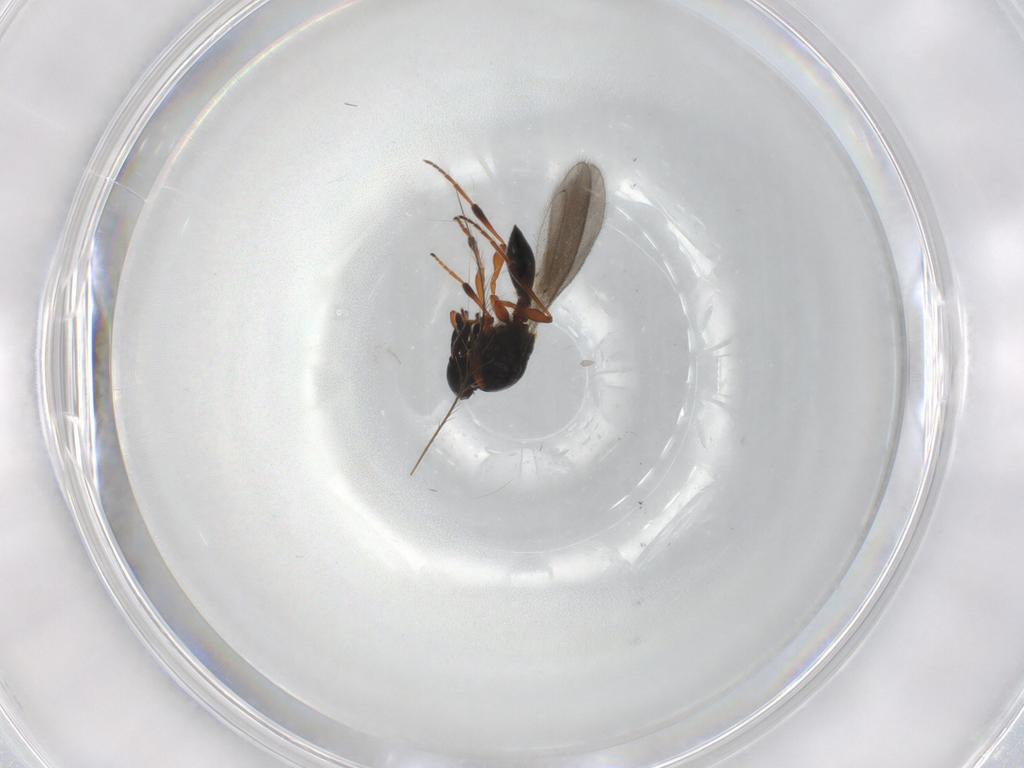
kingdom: Animalia
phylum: Arthropoda
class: Insecta
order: Hymenoptera
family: Platygastridae
